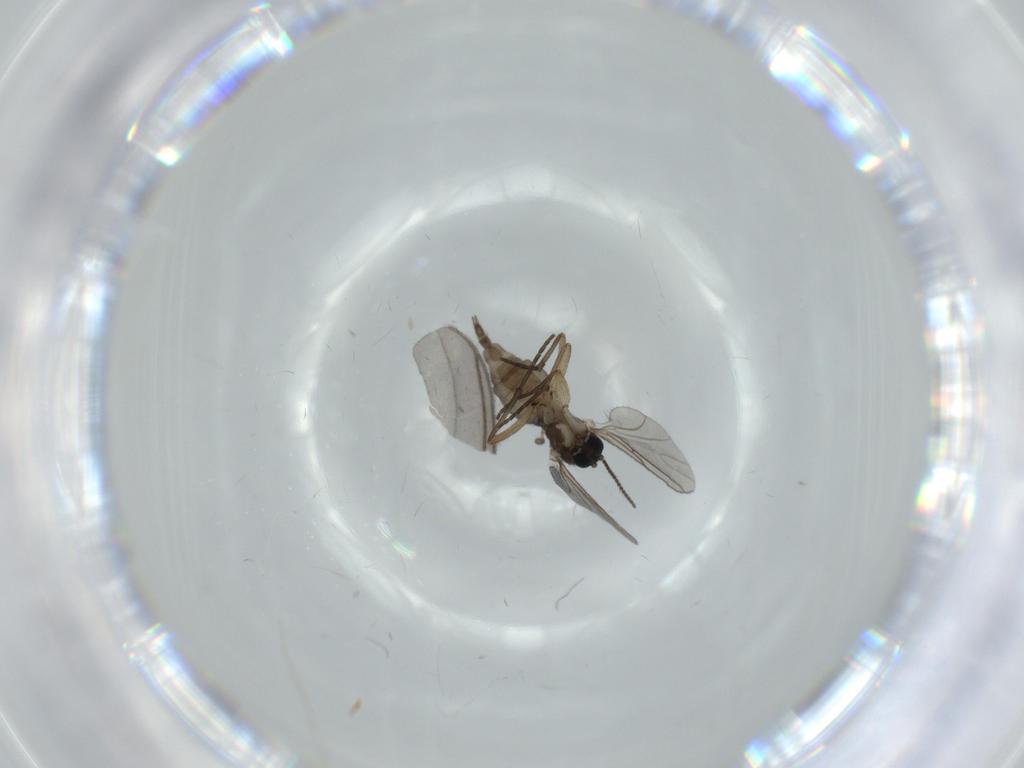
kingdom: Animalia
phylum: Arthropoda
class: Insecta
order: Diptera
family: Sciaridae
